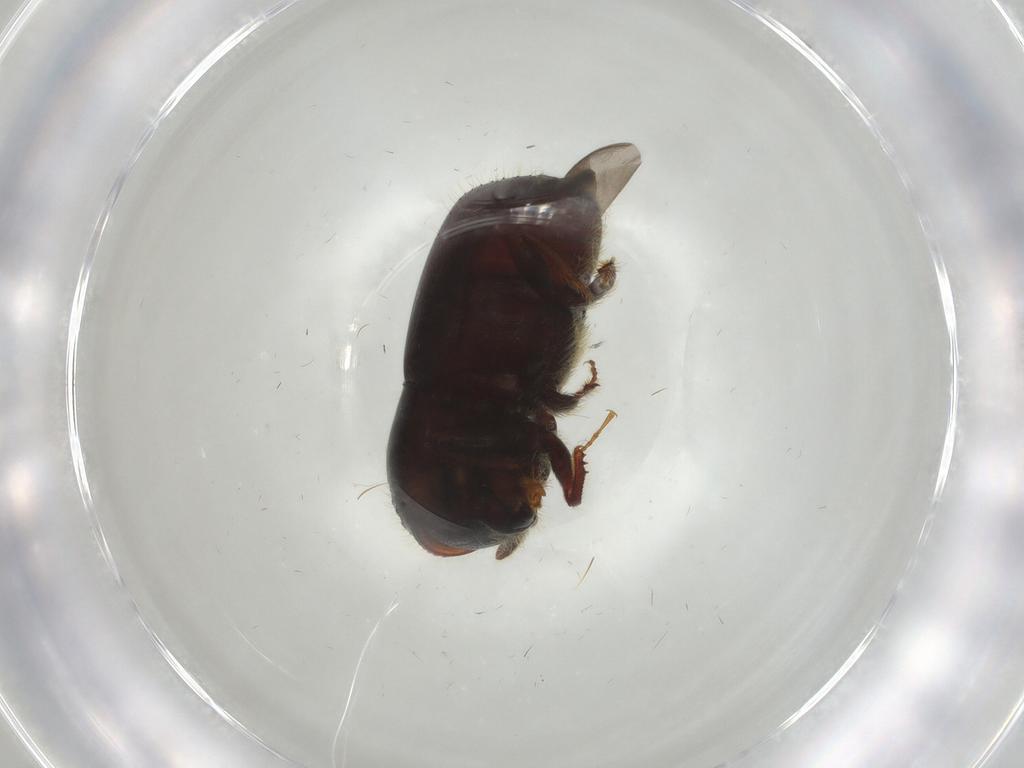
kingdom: Animalia
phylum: Arthropoda
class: Insecta
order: Coleoptera
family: Curculionidae
